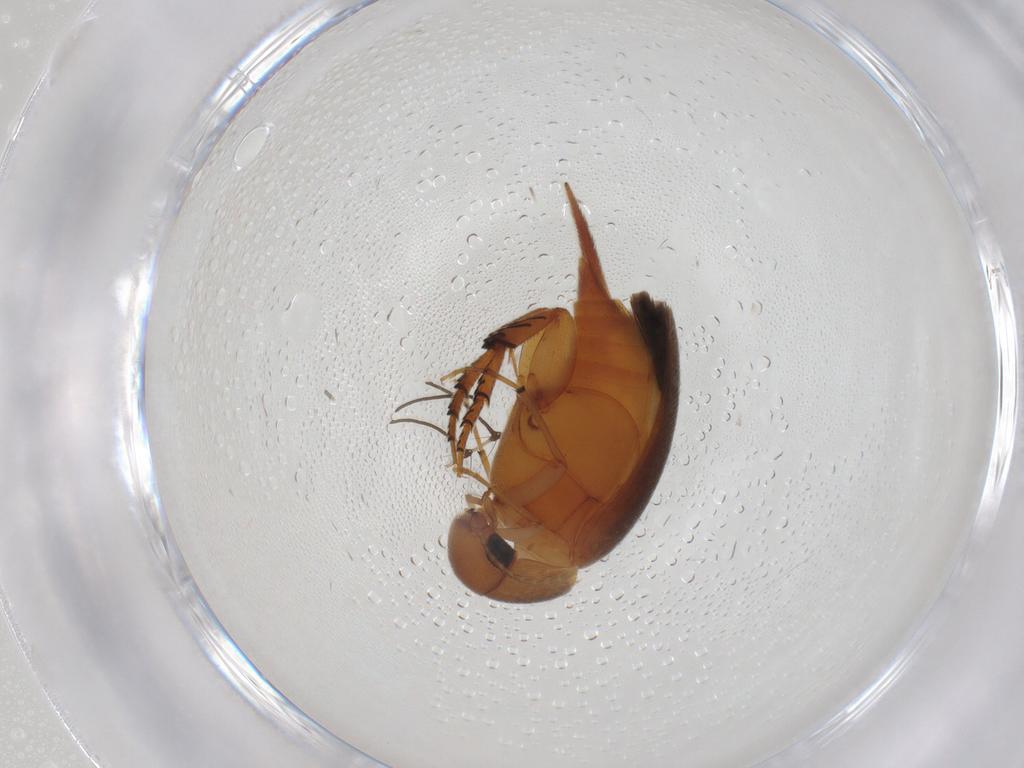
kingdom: Animalia
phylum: Arthropoda
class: Insecta
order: Coleoptera
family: Mordellidae
